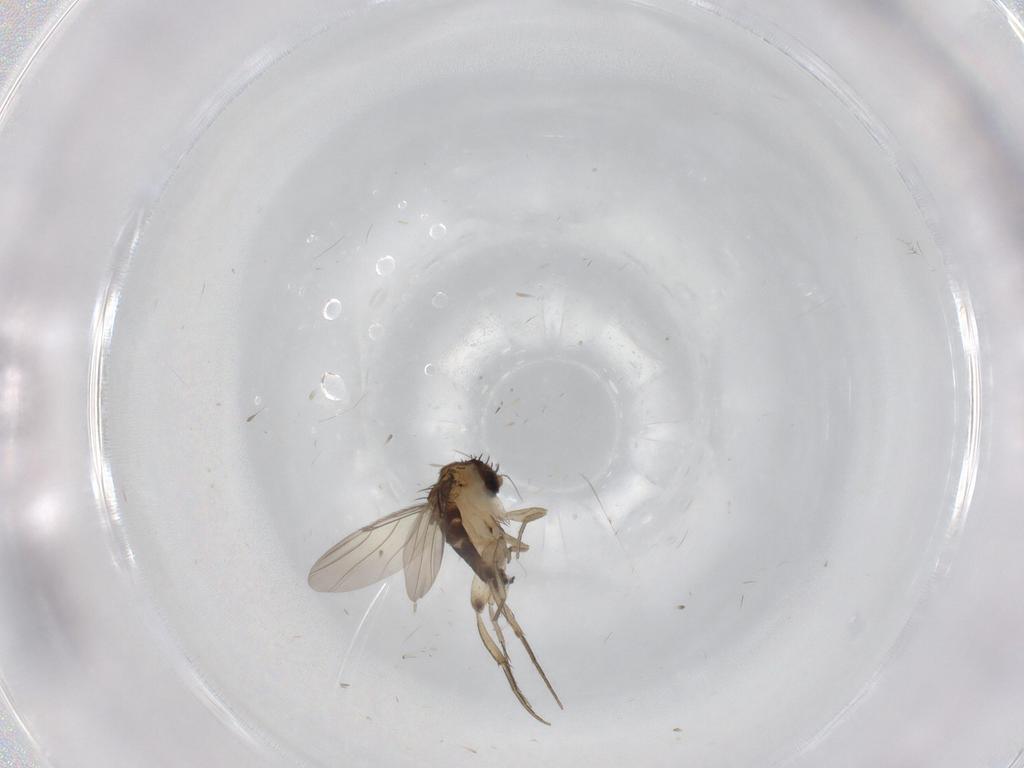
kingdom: Animalia
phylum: Arthropoda
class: Insecta
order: Diptera
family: Phoridae
